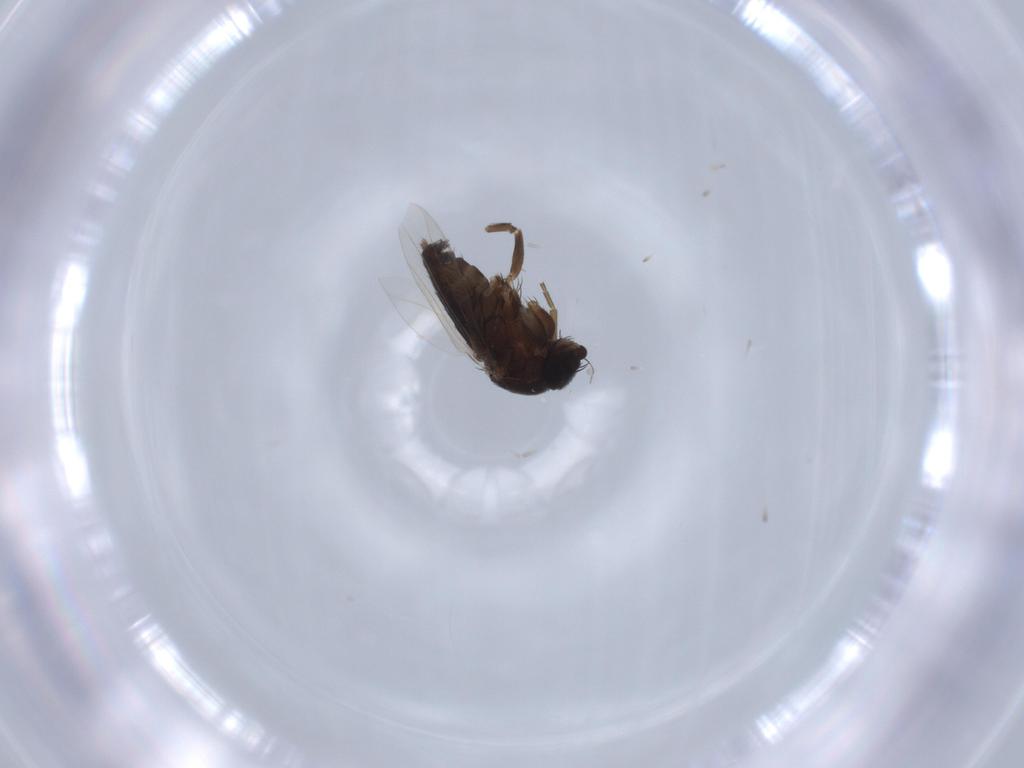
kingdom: Animalia
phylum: Arthropoda
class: Insecta
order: Diptera
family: Phoridae
